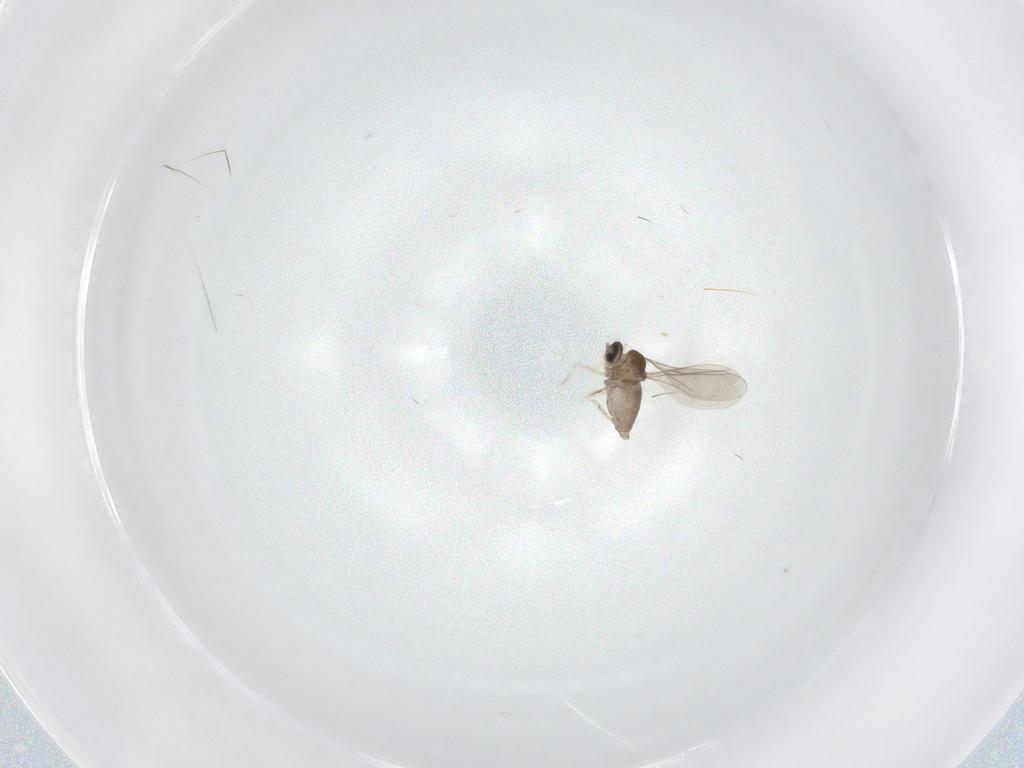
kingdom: Animalia
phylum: Arthropoda
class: Insecta
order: Diptera
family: Cecidomyiidae
